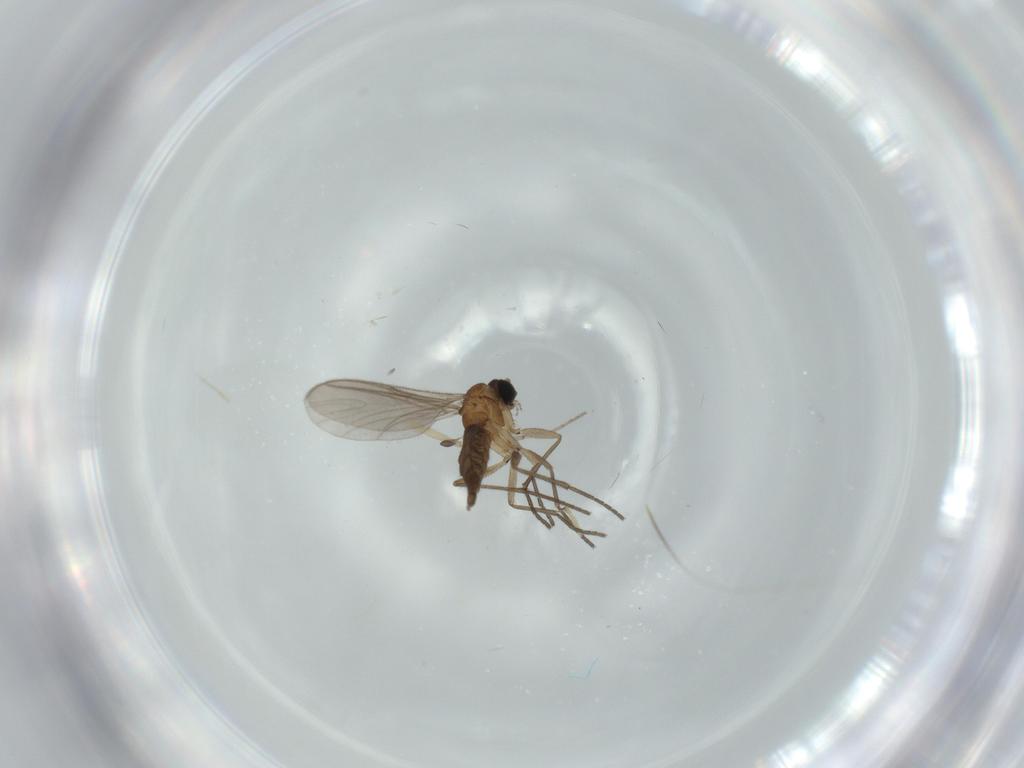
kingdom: Animalia
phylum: Arthropoda
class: Insecta
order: Diptera
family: Sciaridae
